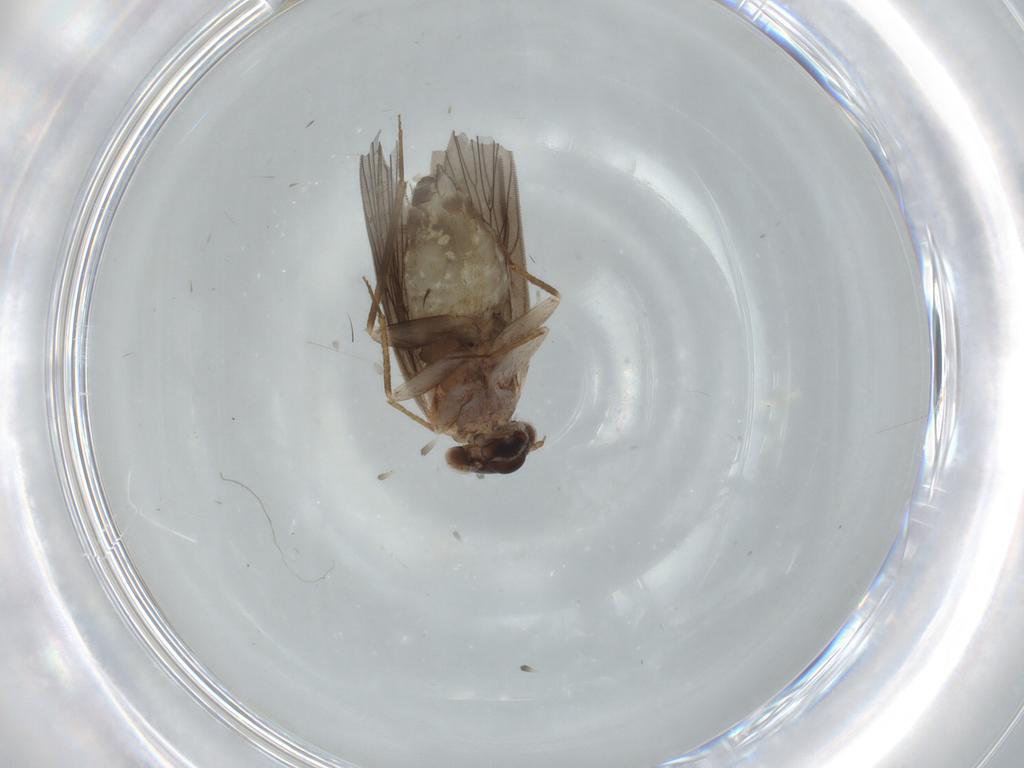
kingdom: Animalia
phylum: Arthropoda
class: Insecta
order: Psocodea
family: Lepidopsocidae
